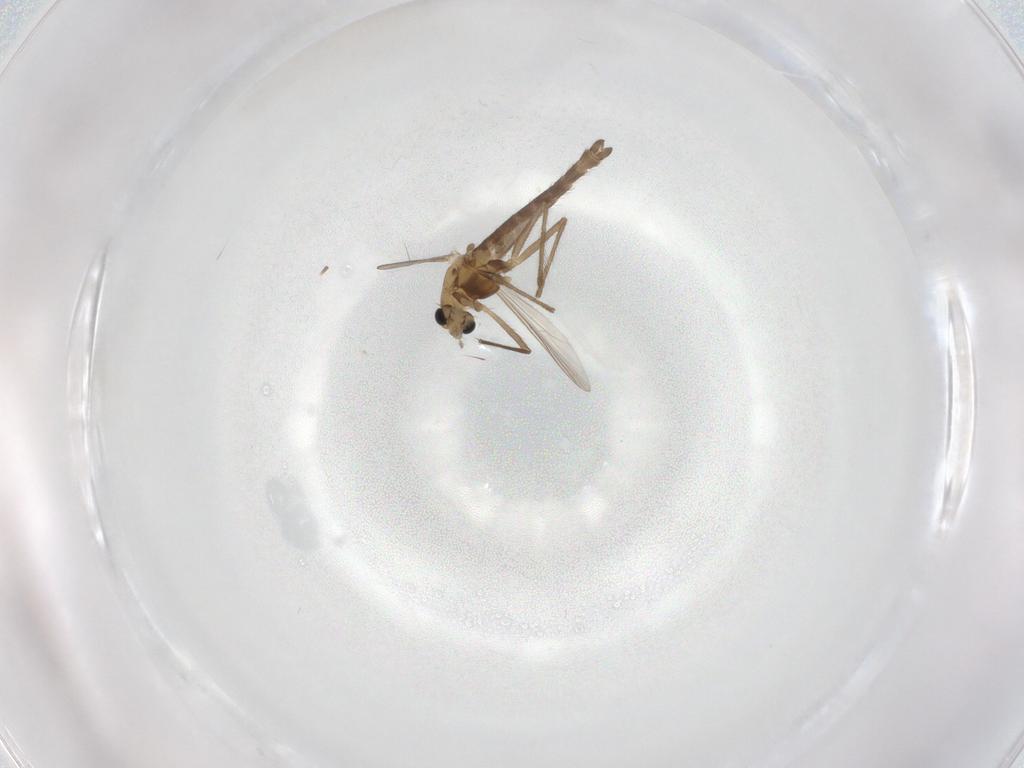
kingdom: Animalia
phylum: Arthropoda
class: Insecta
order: Diptera
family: Chironomidae
